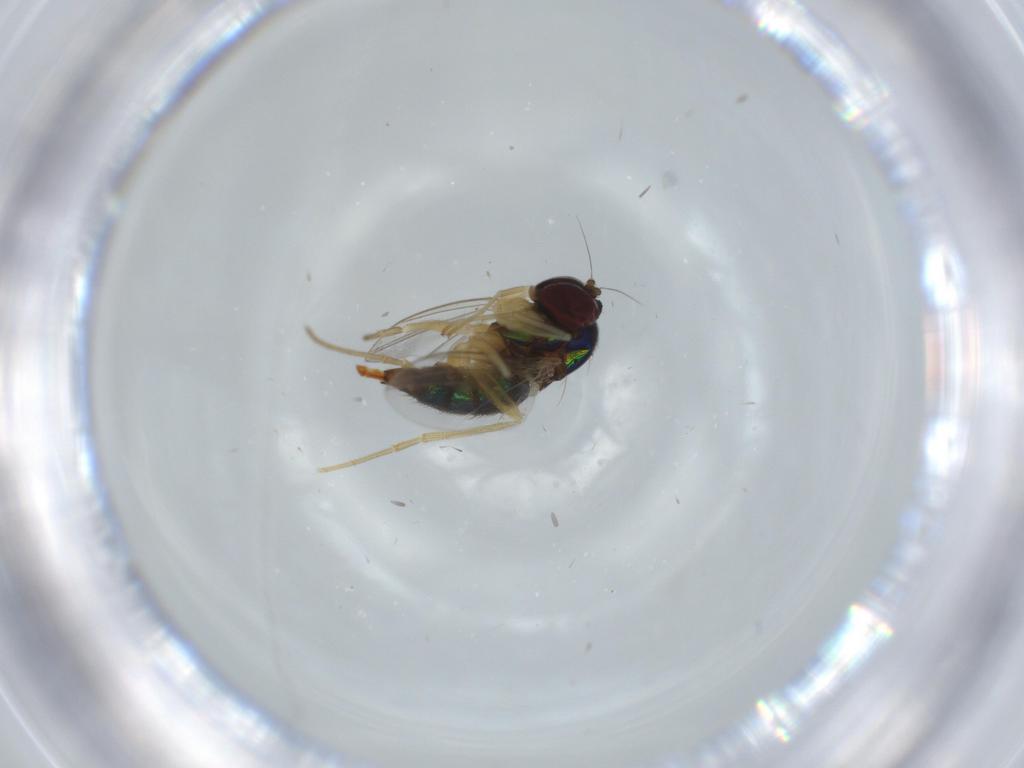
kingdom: Animalia
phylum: Arthropoda
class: Insecta
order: Diptera
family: Dolichopodidae
